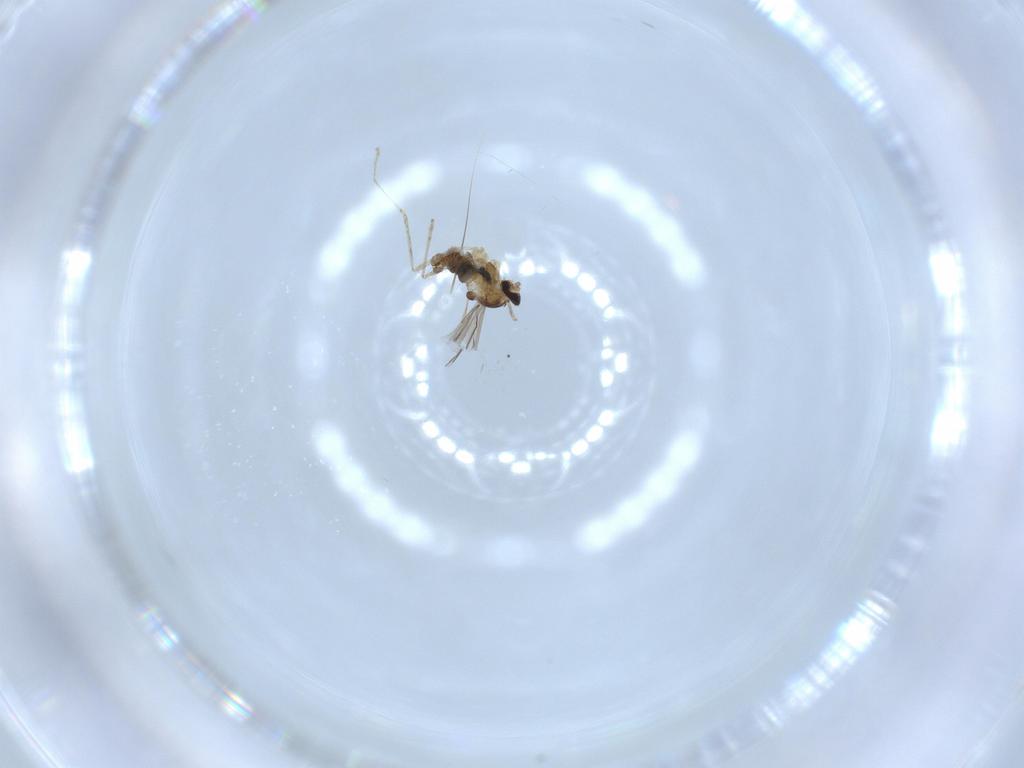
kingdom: Animalia
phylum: Arthropoda
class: Insecta
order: Diptera
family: Cecidomyiidae
